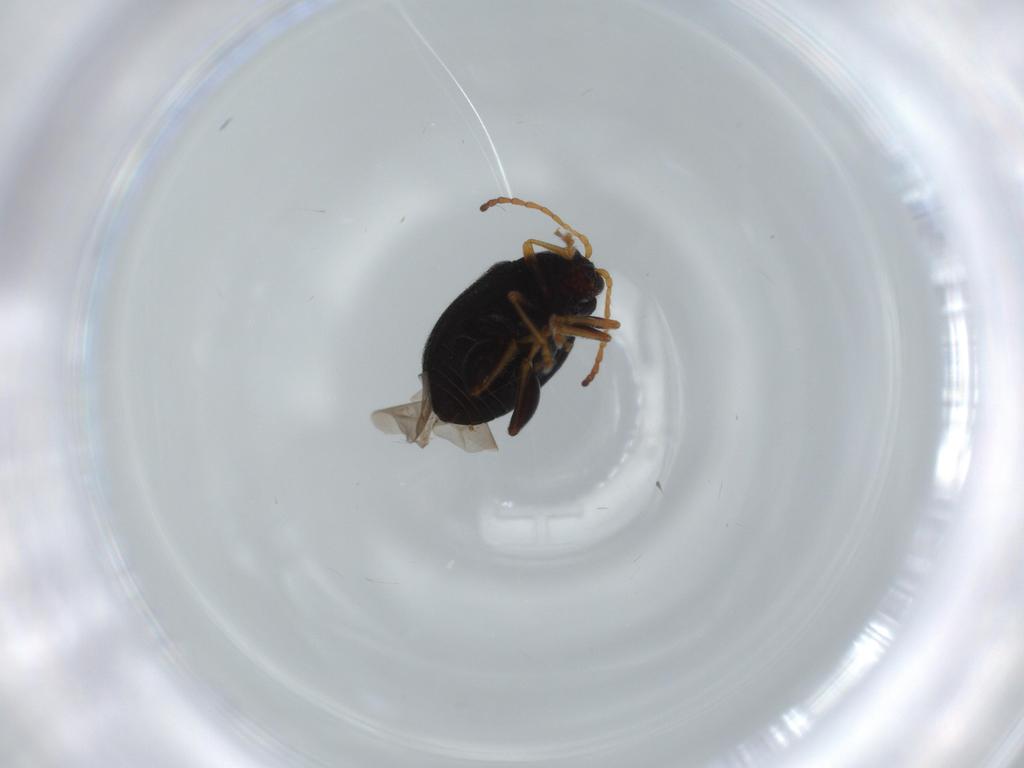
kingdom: Animalia
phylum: Arthropoda
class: Insecta
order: Coleoptera
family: Chrysomelidae
